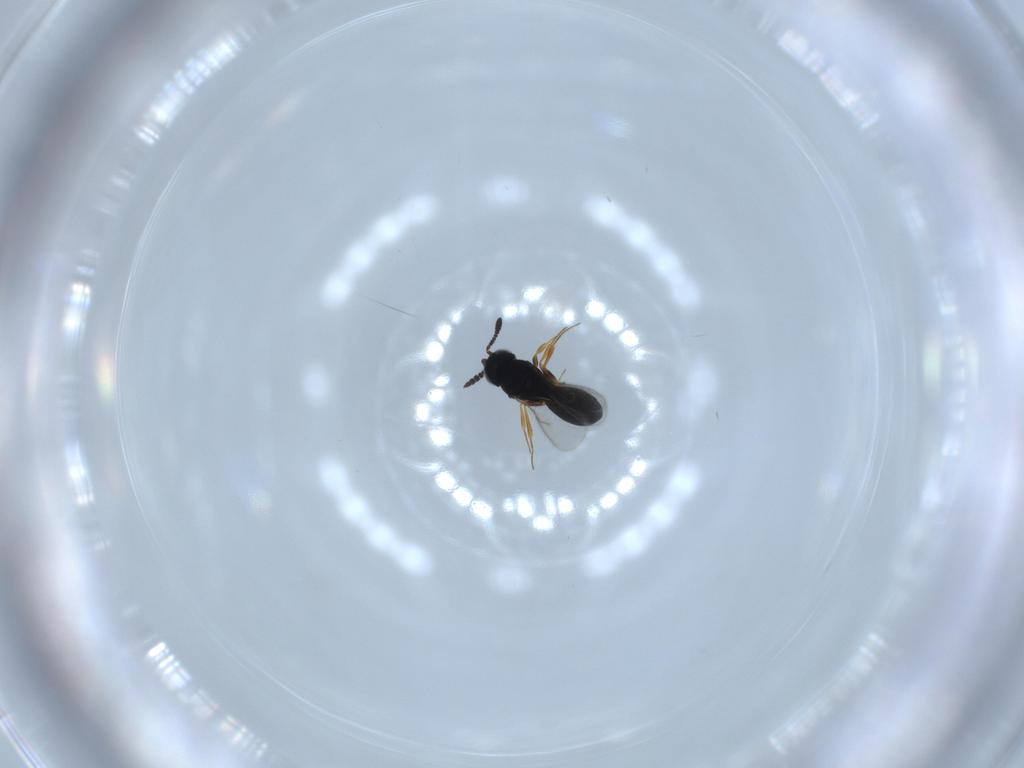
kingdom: Animalia
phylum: Arthropoda
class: Insecta
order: Hymenoptera
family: Scelionidae
